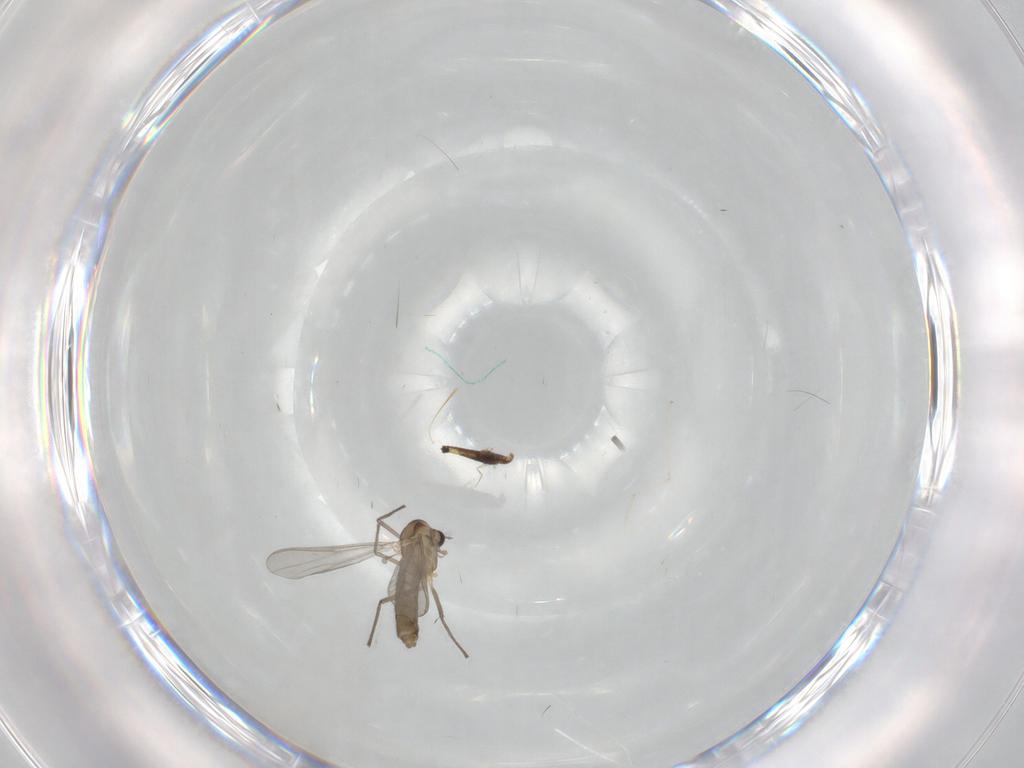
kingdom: Animalia
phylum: Arthropoda
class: Insecta
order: Diptera
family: Cecidomyiidae
